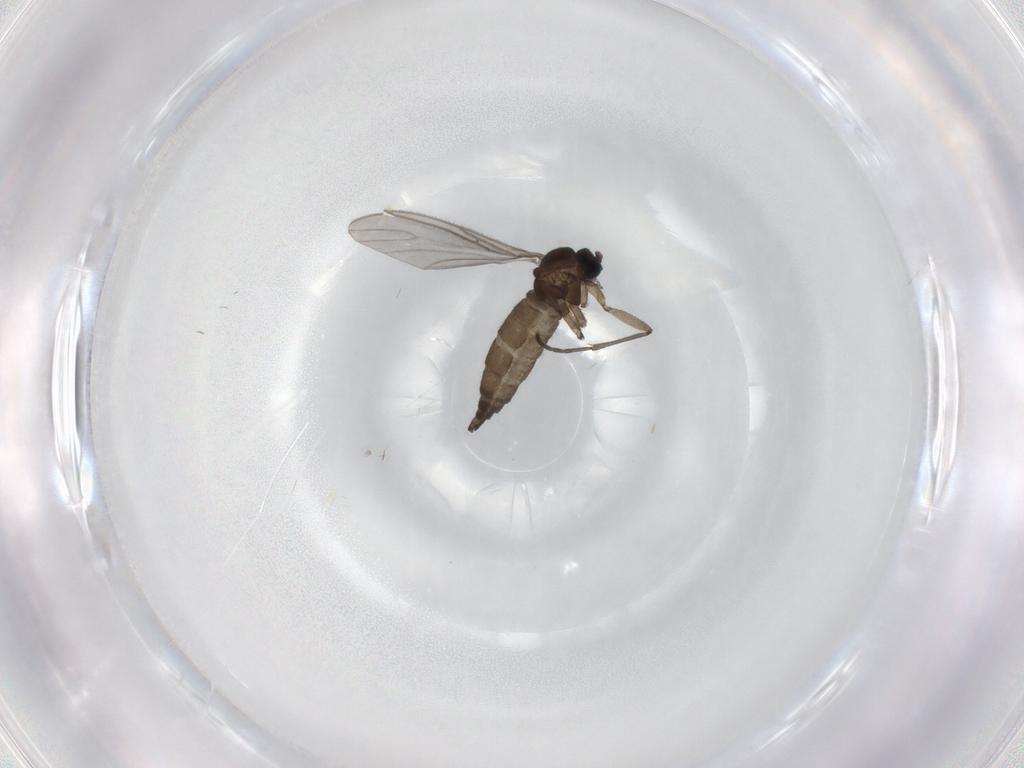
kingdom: Animalia
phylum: Arthropoda
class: Insecta
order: Diptera
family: Sciaridae
